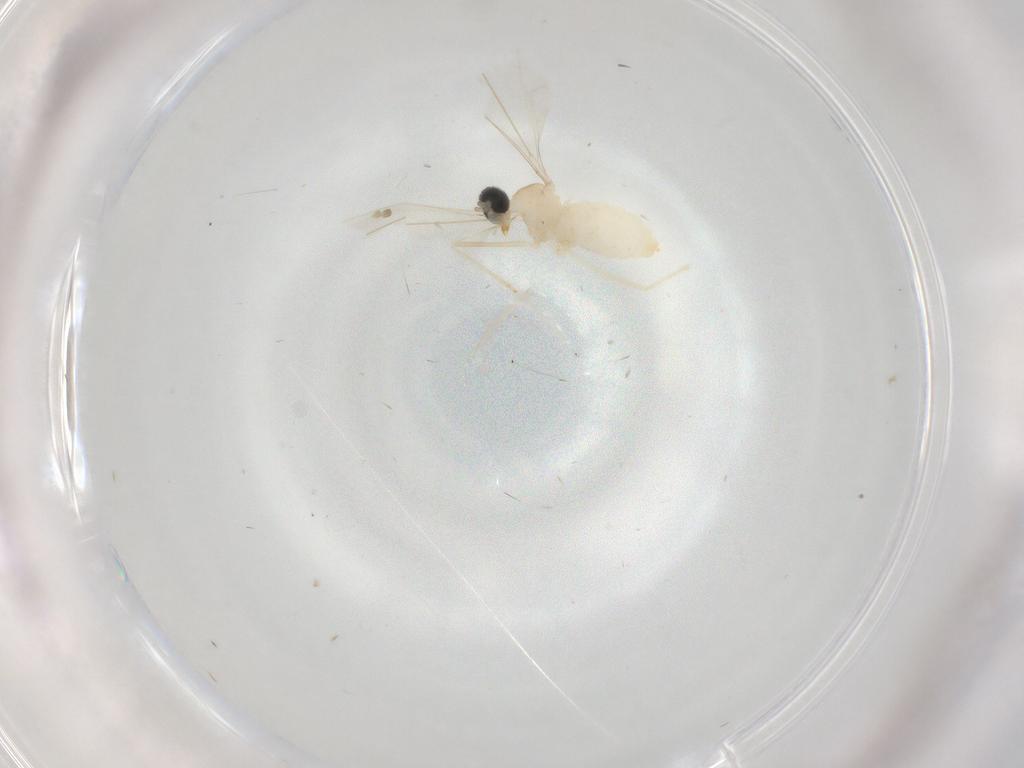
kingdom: Animalia
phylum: Arthropoda
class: Insecta
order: Diptera
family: Cecidomyiidae
